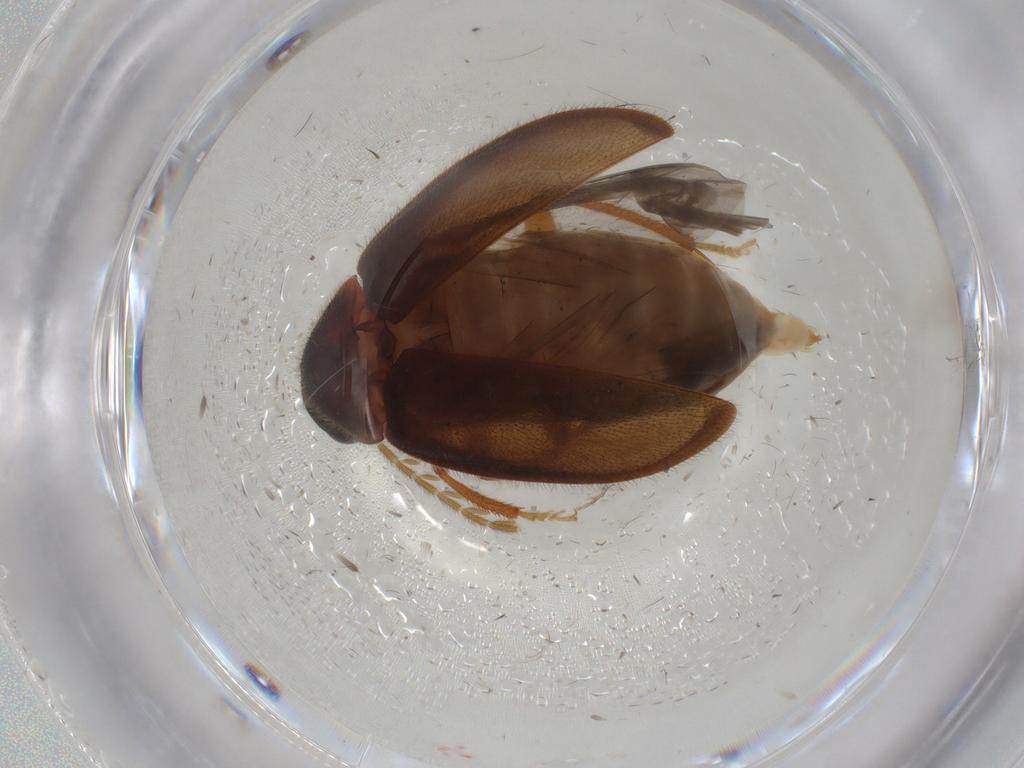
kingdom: Animalia
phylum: Arthropoda
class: Insecta
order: Coleoptera
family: Ptilodactylidae
